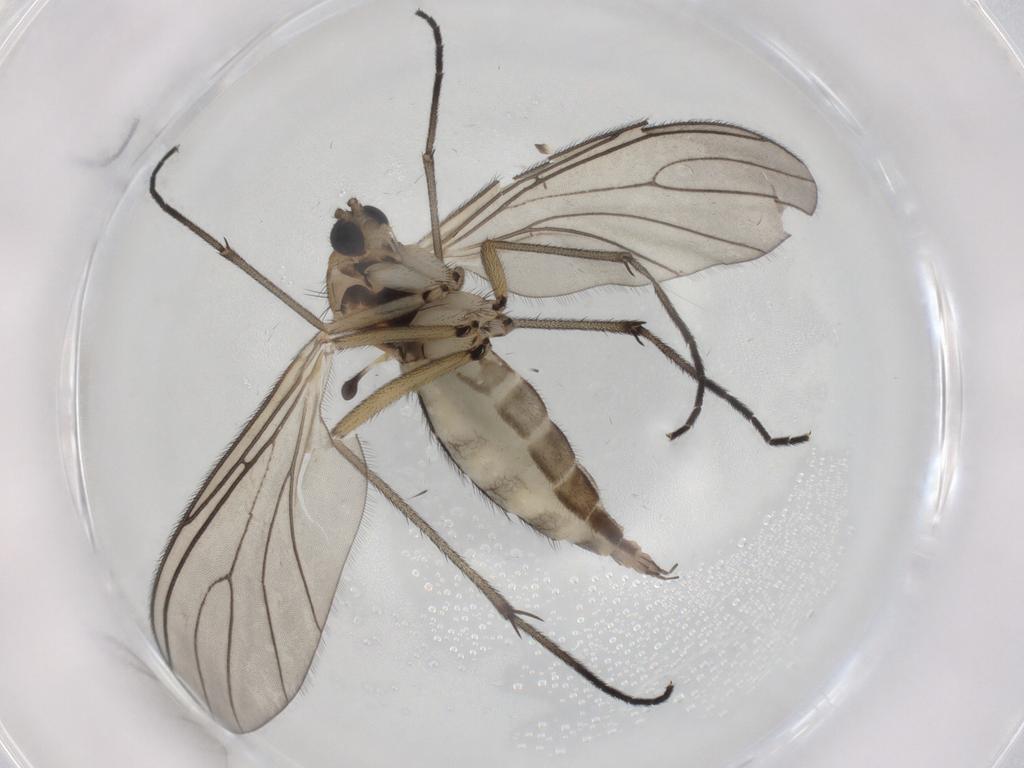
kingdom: Animalia
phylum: Arthropoda
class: Insecta
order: Diptera
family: Sciaridae
